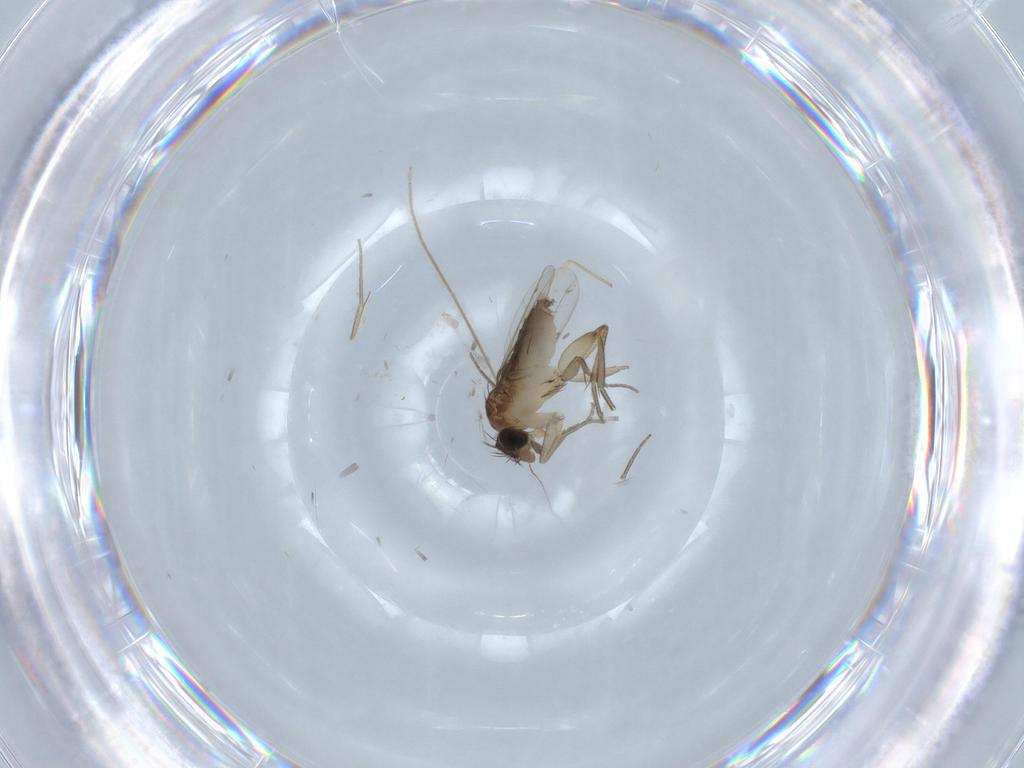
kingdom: Animalia
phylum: Arthropoda
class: Insecta
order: Diptera
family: Phoridae
